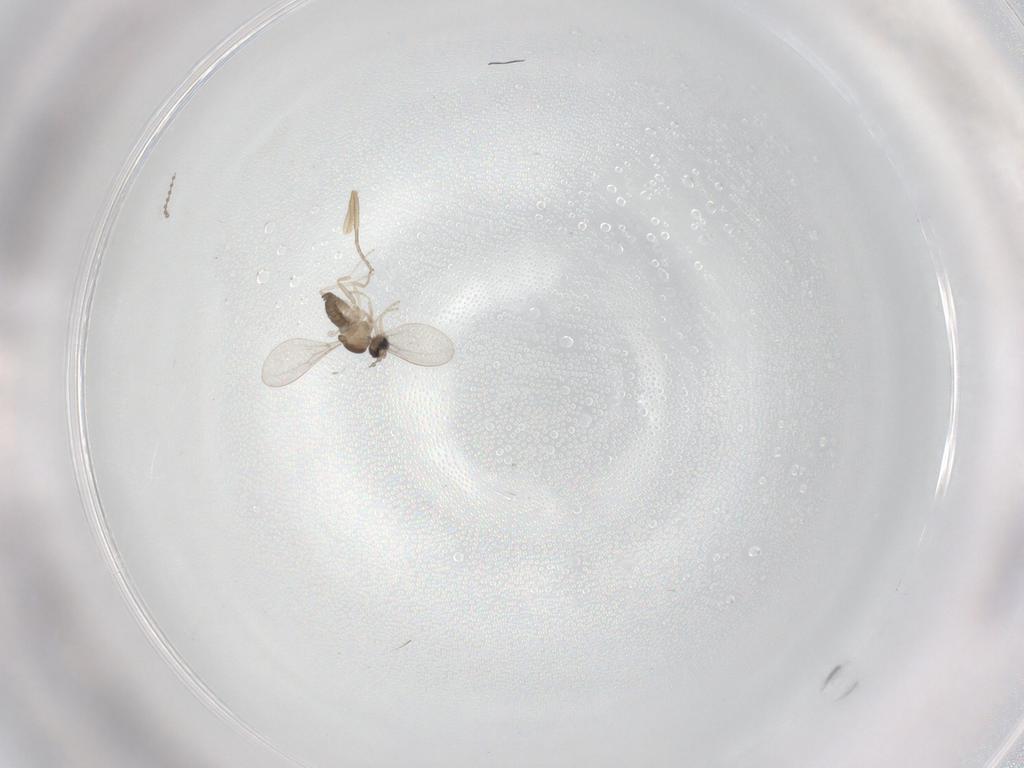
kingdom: Animalia
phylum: Arthropoda
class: Insecta
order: Diptera
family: Cecidomyiidae
